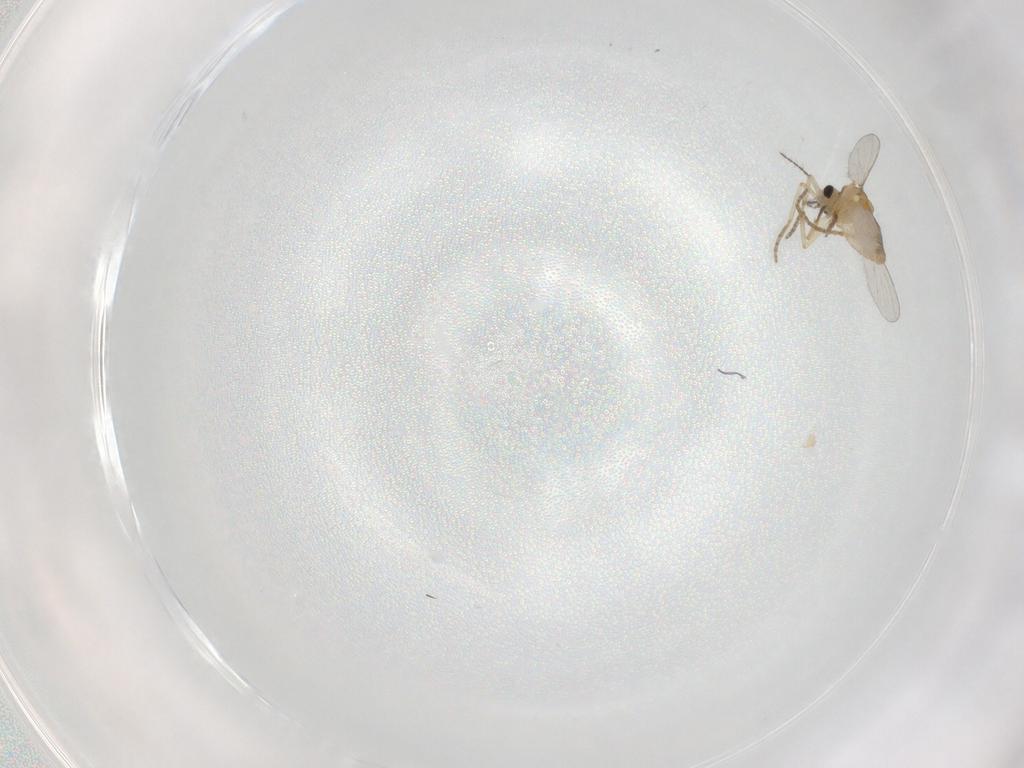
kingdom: Animalia
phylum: Arthropoda
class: Insecta
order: Diptera
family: Ceratopogonidae
